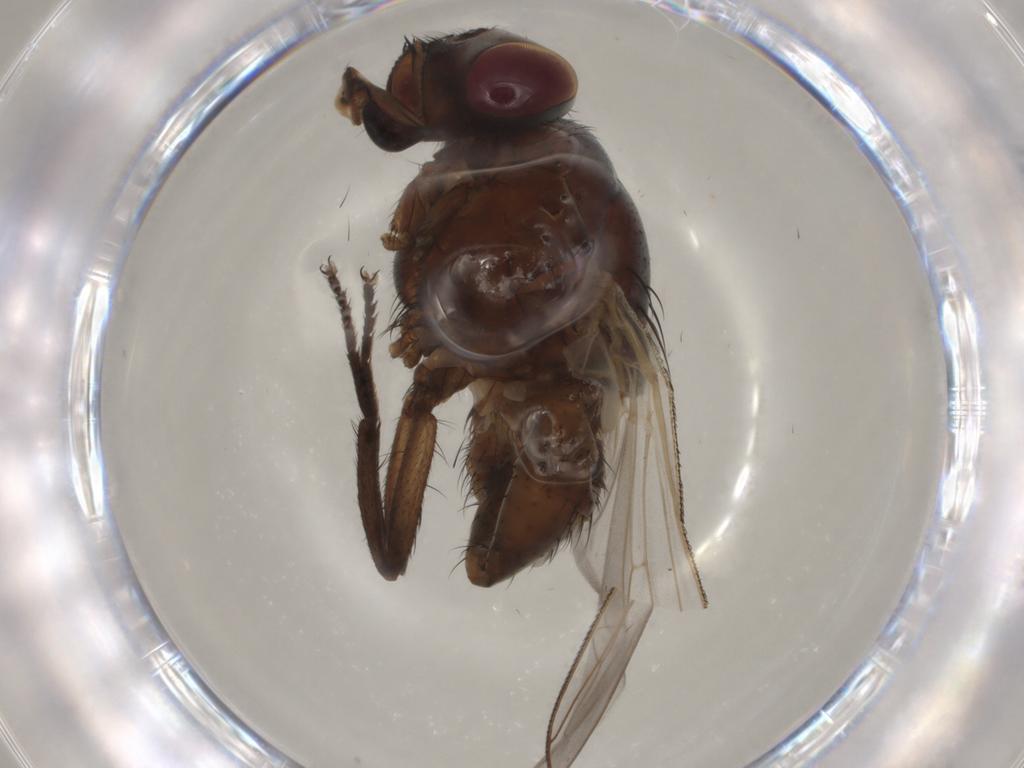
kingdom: Animalia
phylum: Arthropoda
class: Insecta
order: Diptera
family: Muscidae
